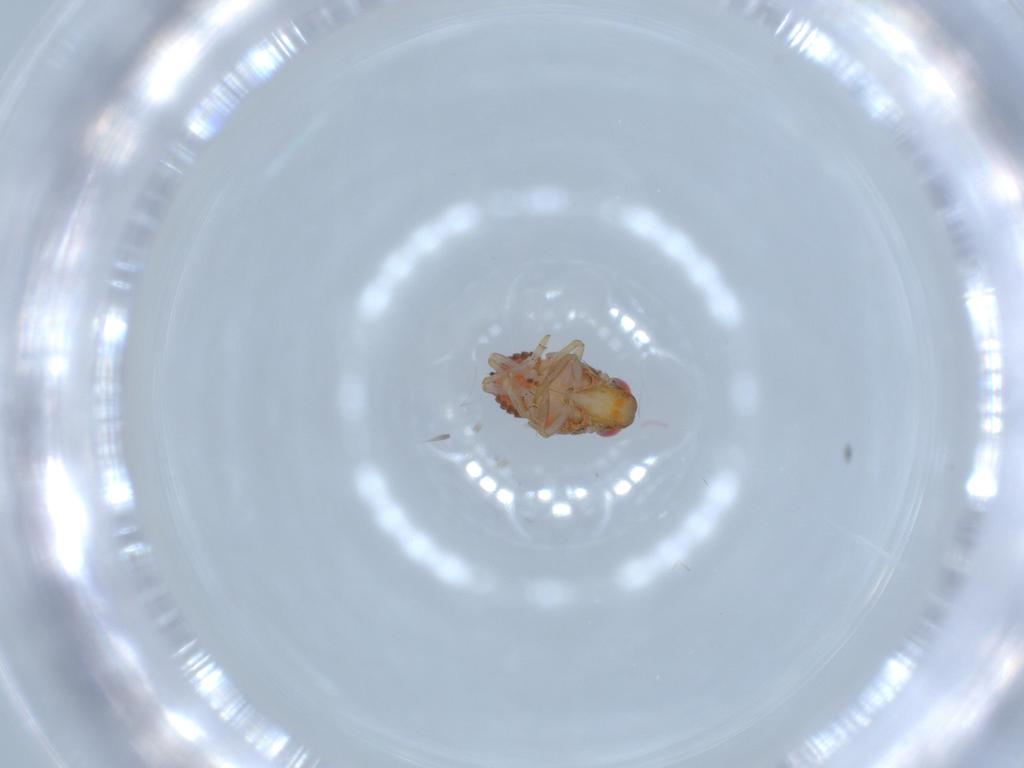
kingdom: Animalia
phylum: Arthropoda
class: Insecta
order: Hemiptera
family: Issidae
